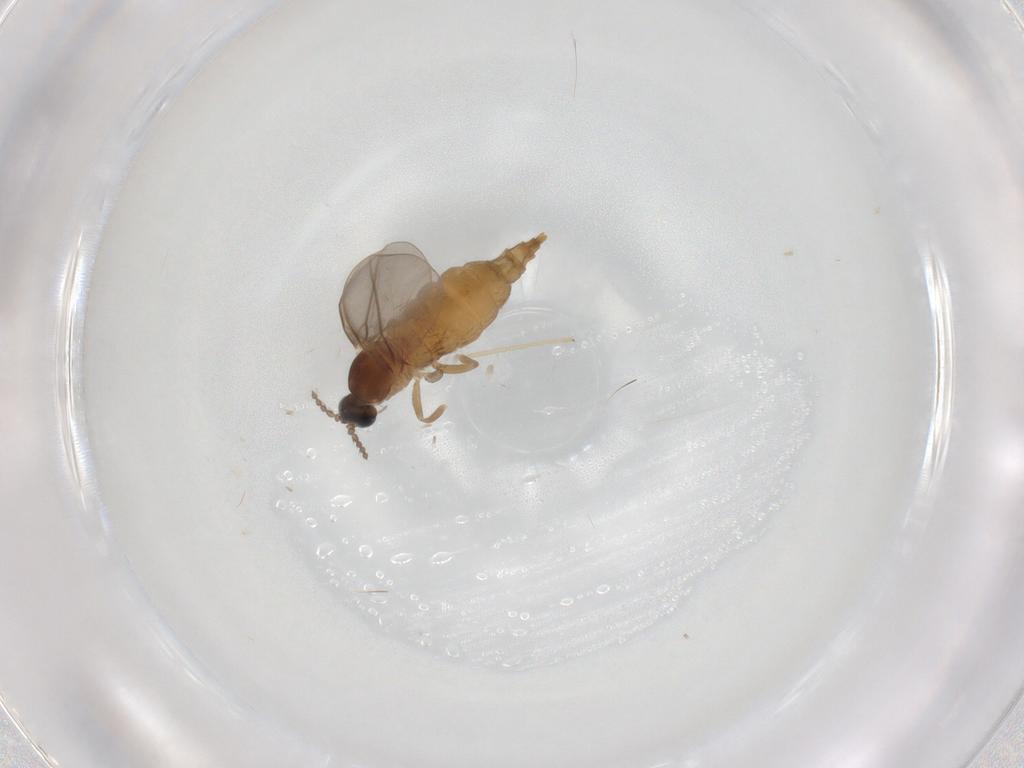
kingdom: Animalia
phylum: Arthropoda
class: Insecta
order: Diptera
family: Cecidomyiidae
